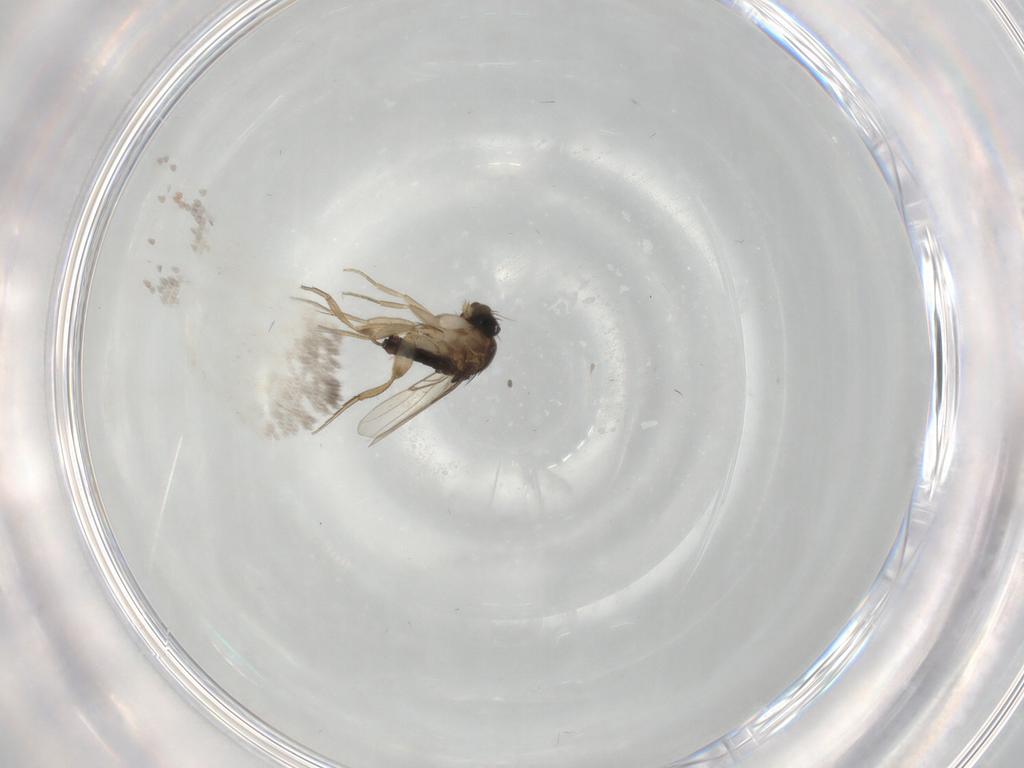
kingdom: Animalia
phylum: Arthropoda
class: Insecta
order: Diptera
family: Phoridae
